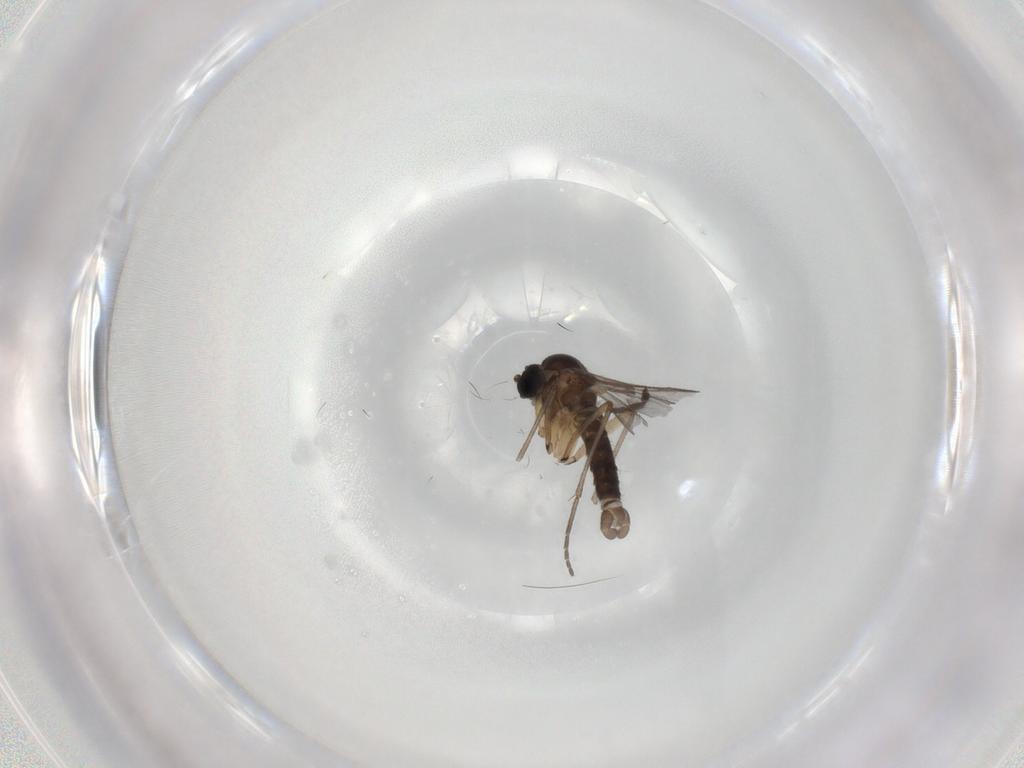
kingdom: Animalia
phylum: Arthropoda
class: Insecta
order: Diptera
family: Sciaridae
